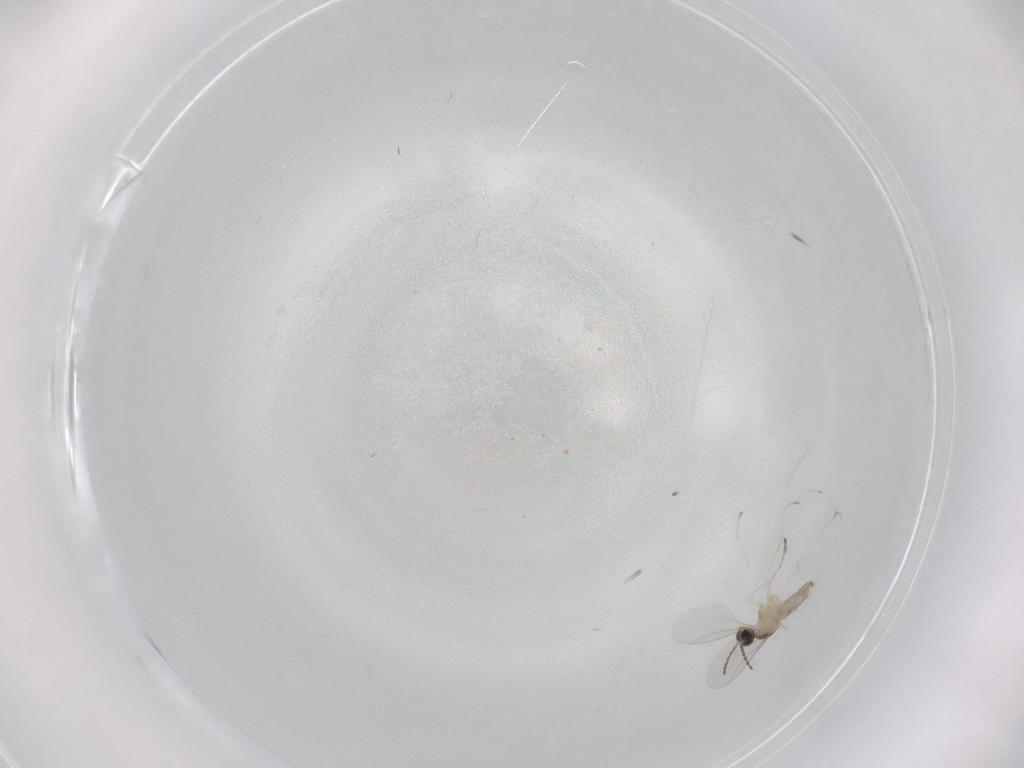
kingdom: Animalia
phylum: Arthropoda
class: Insecta
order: Diptera
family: Cecidomyiidae
